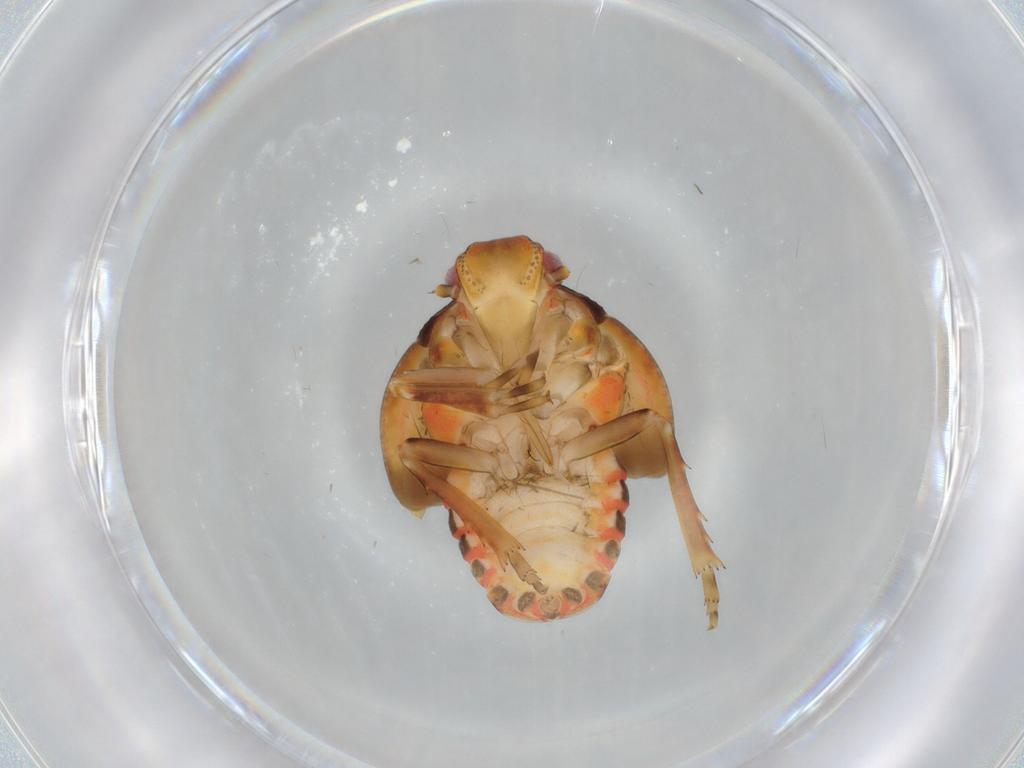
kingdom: Animalia
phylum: Arthropoda
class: Insecta
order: Hemiptera
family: Flatidae
